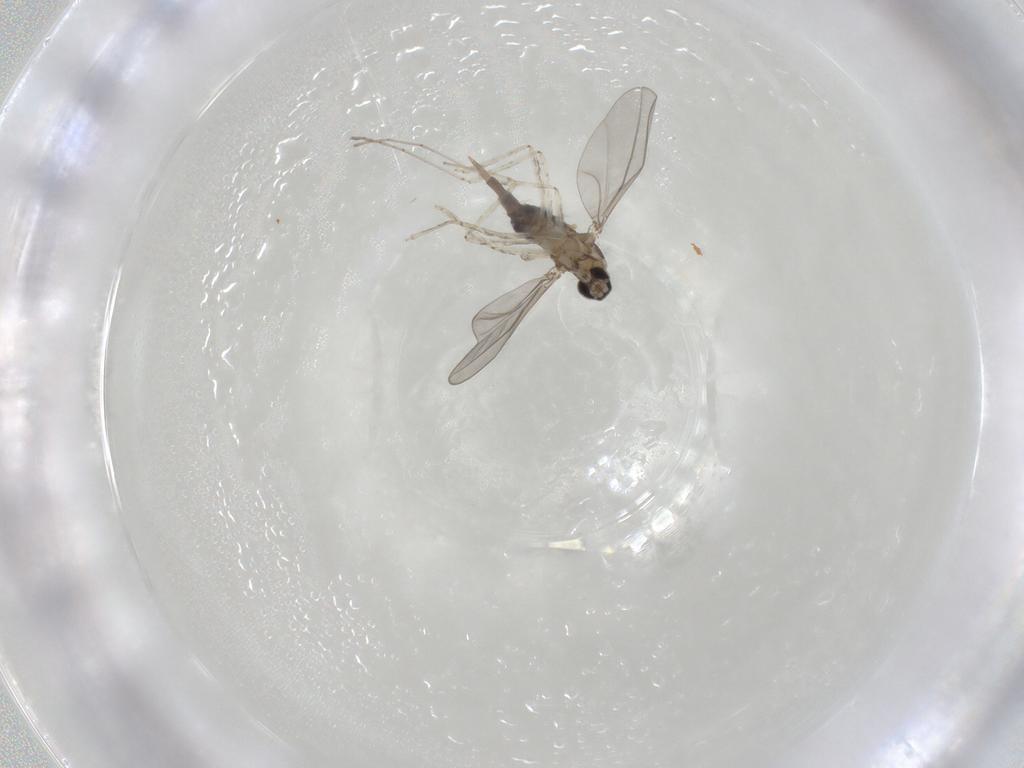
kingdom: Animalia
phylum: Arthropoda
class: Insecta
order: Diptera
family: Cecidomyiidae
